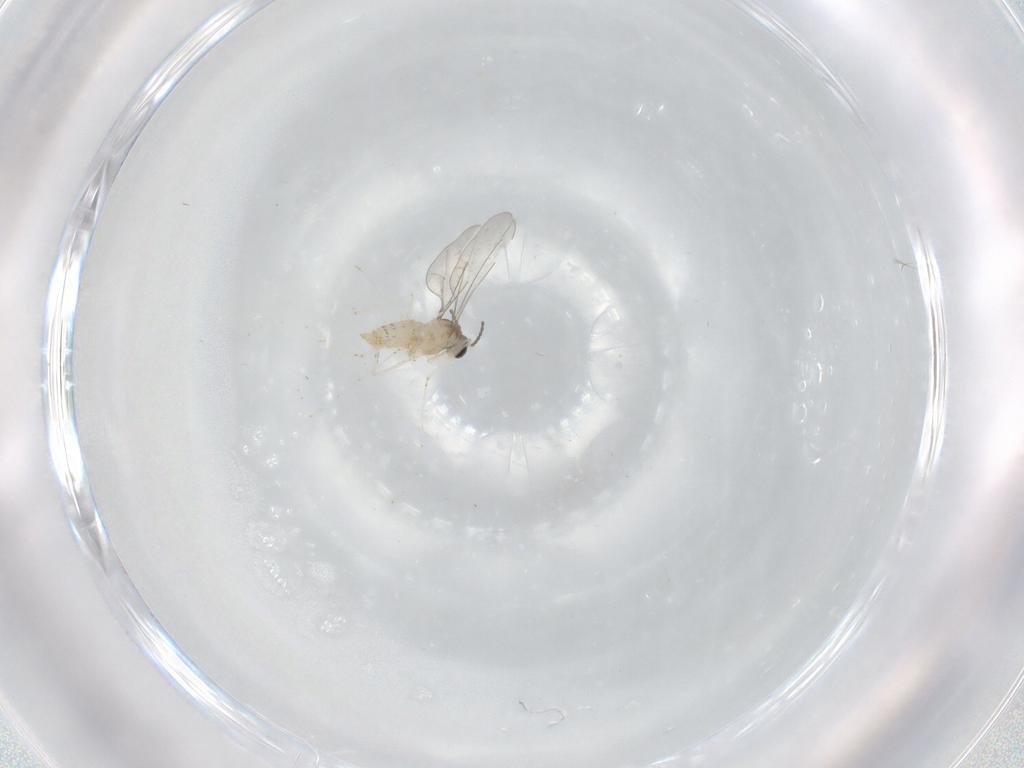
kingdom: Animalia
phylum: Arthropoda
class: Insecta
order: Diptera
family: Cecidomyiidae
